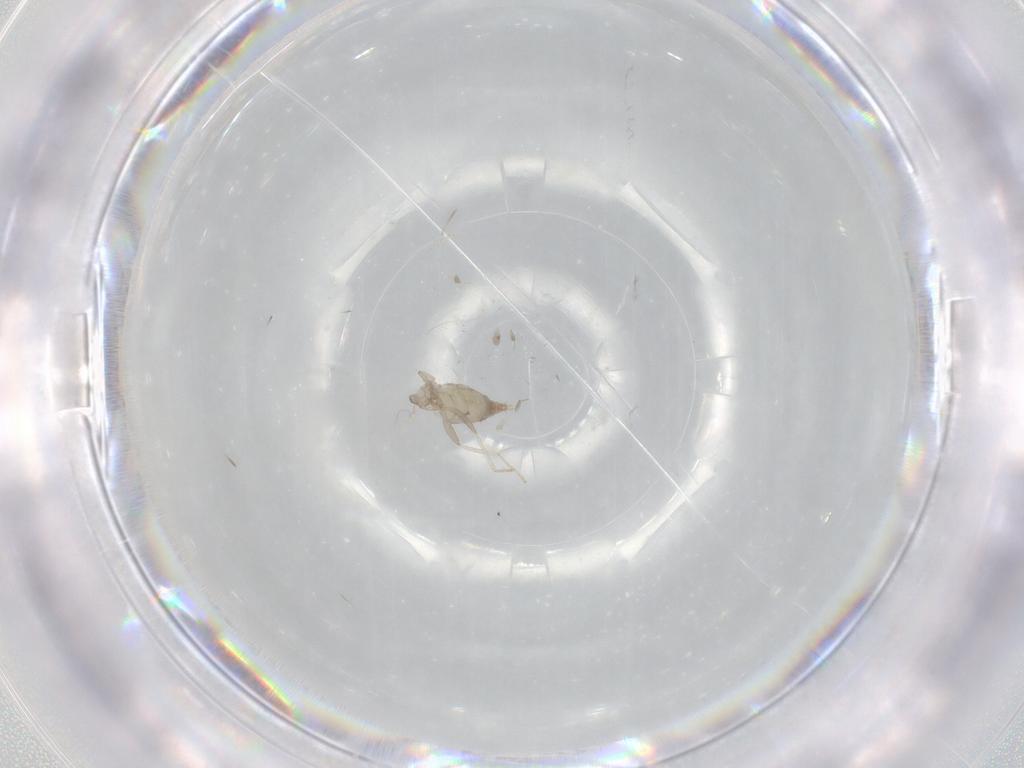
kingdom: Animalia
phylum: Arthropoda
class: Insecta
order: Diptera
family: Cecidomyiidae
